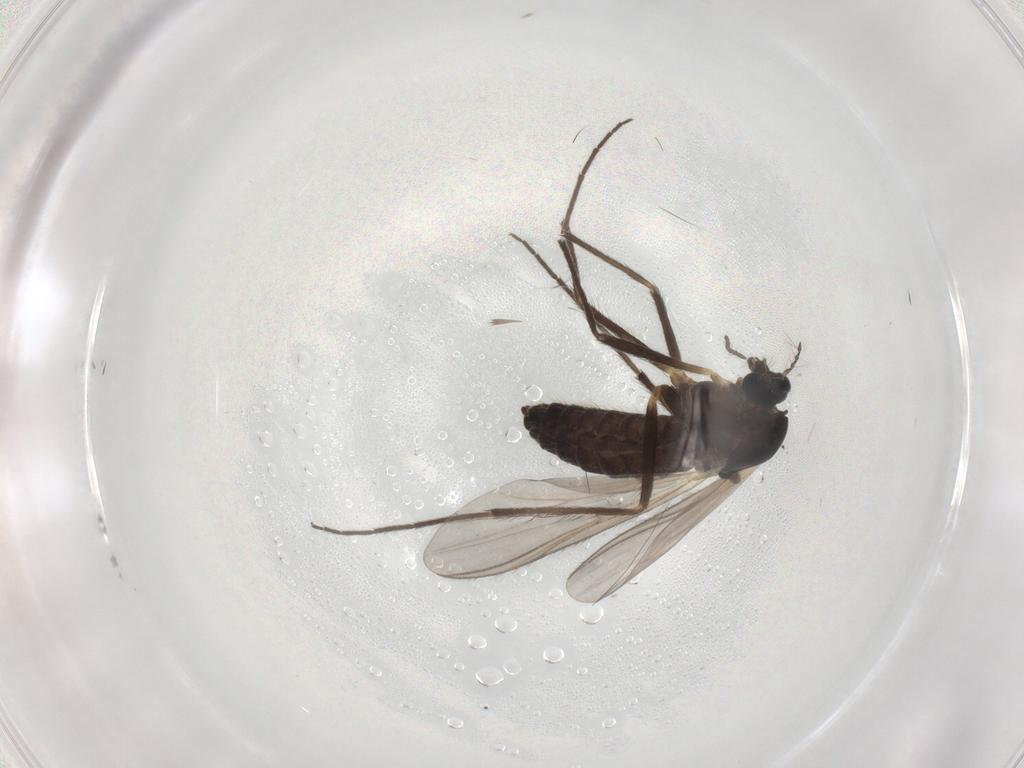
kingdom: Animalia
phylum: Arthropoda
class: Insecta
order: Diptera
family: Chironomidae
